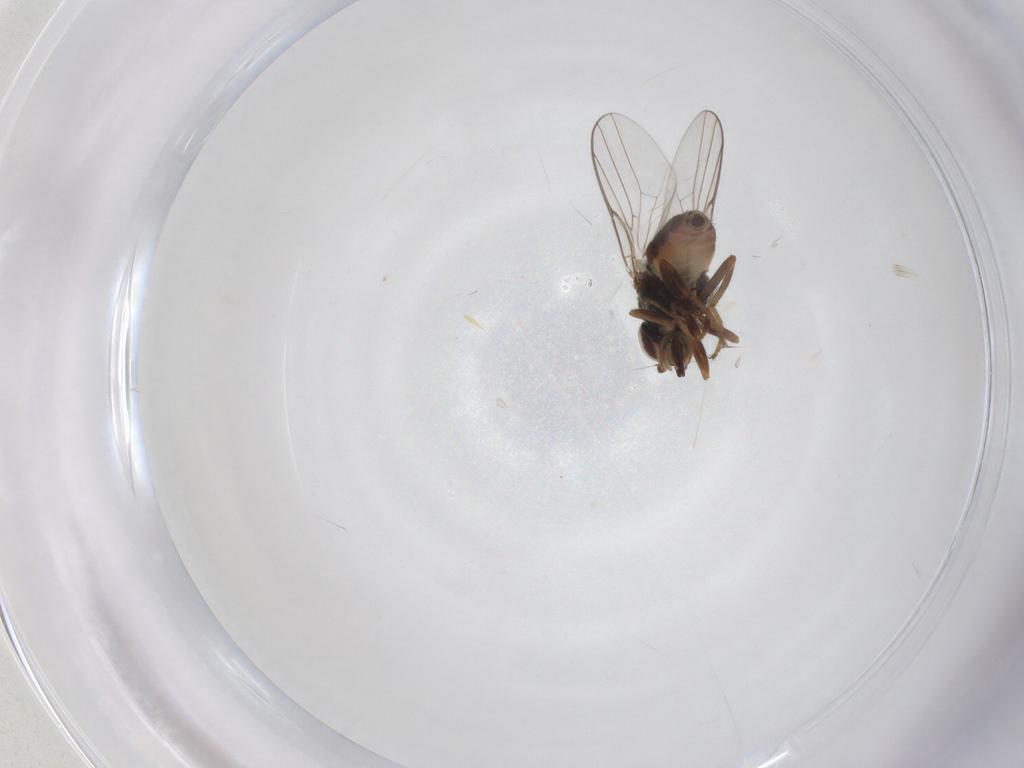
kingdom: Animalia
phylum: Arthropoda
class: Insecta
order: Diptera
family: Chloropidae
